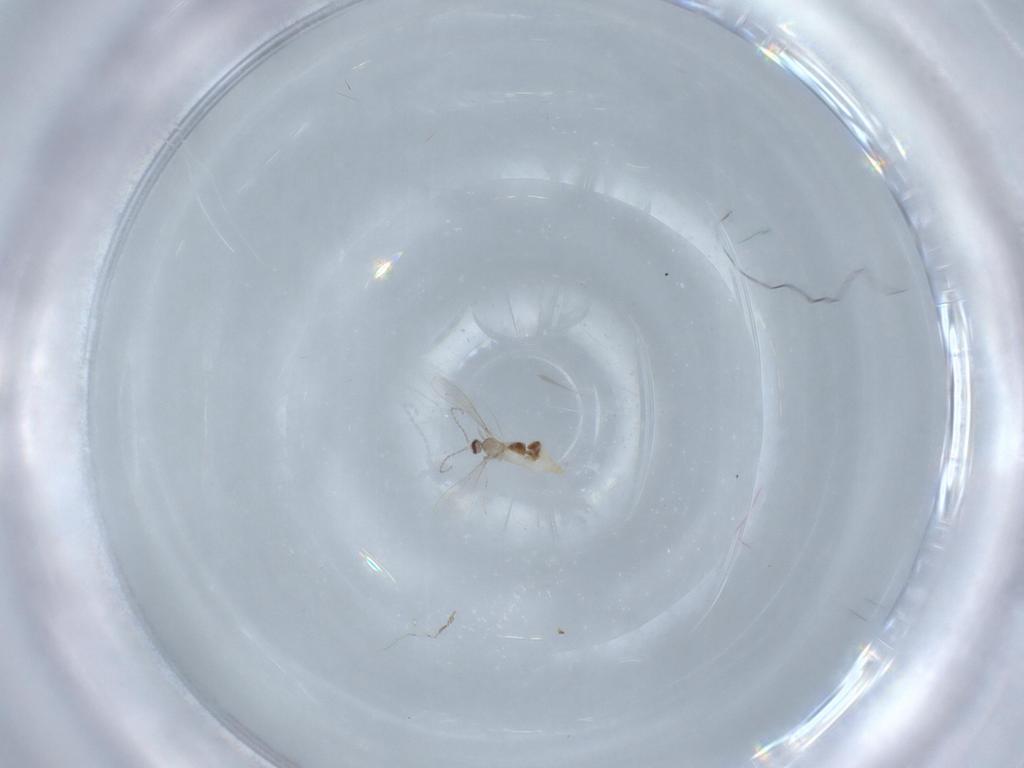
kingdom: Animalia
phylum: Arthropoda
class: Insecta
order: Diptera
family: Cecidomyiidae
